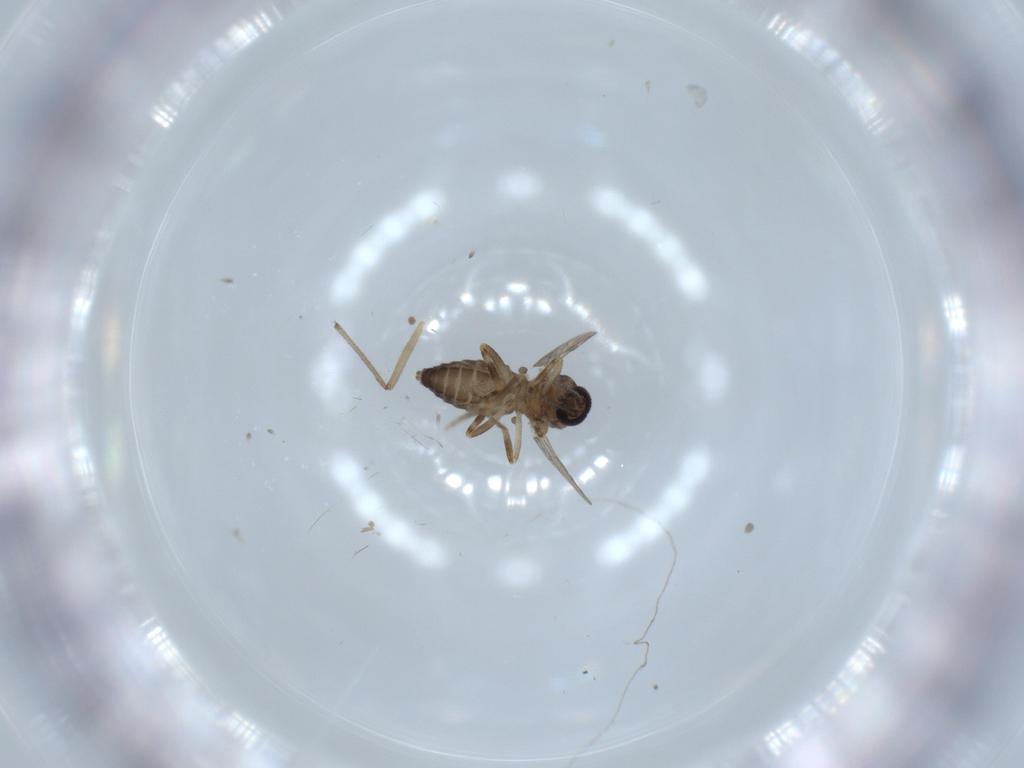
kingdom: Animalia
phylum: Arthropoda
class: Insecta
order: Diptera
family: Chironomidae
